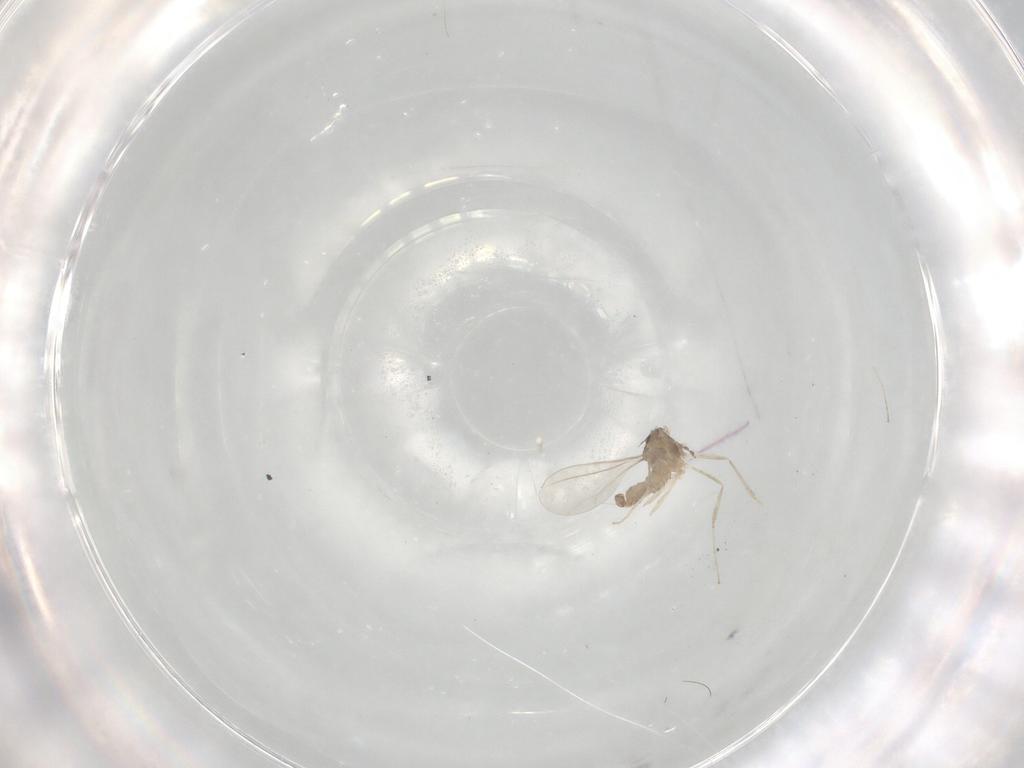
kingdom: Animalia
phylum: Arthropoda
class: Insecta
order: Diptera
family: Cecidomyiidae
